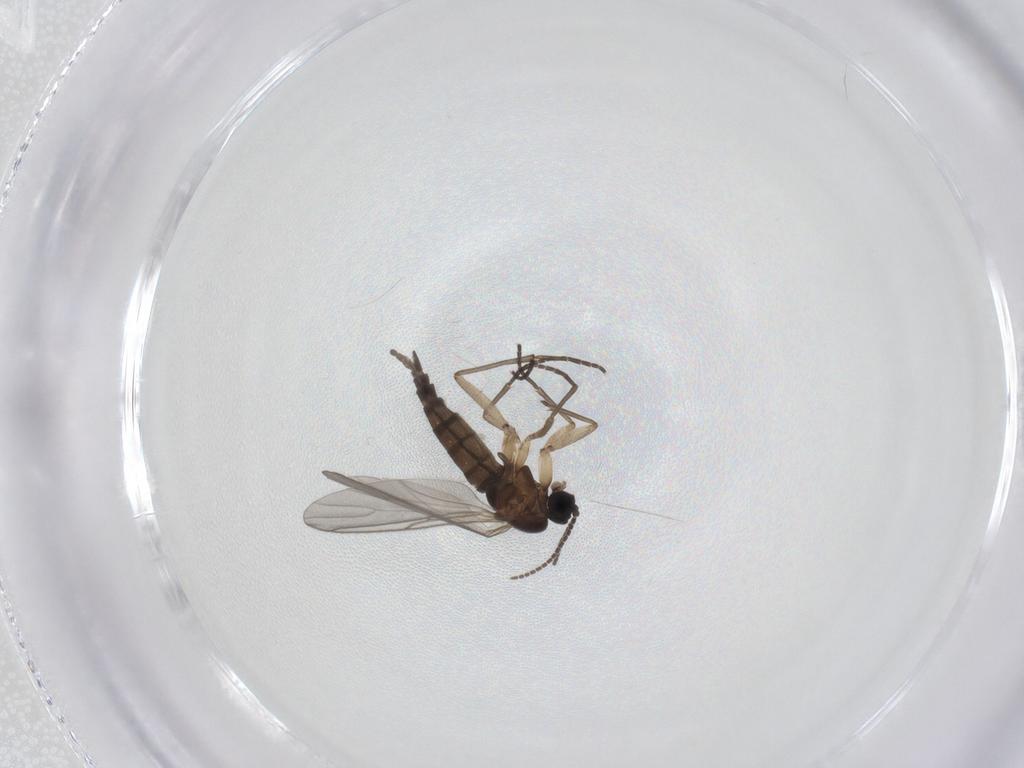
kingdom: Animalia
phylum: Arthropoda
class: Insecta
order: Diptera
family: Sciaridae
